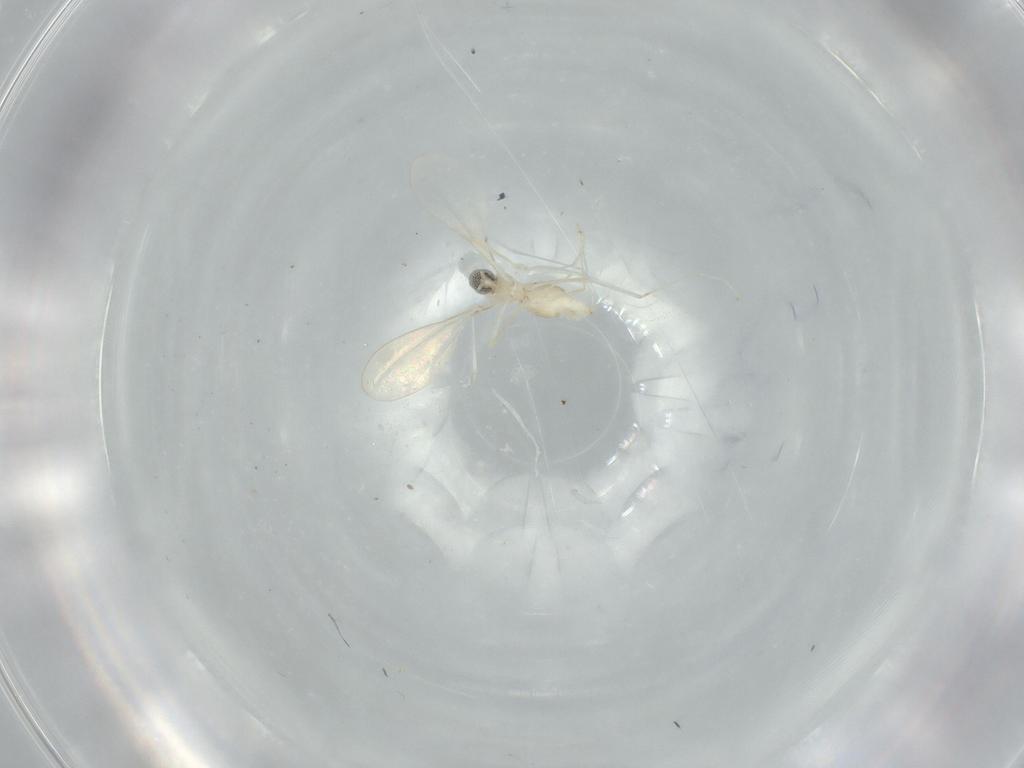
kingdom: Animalia
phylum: Arthropoda
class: Insecta
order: Diptera
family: Cecidomyiidae
